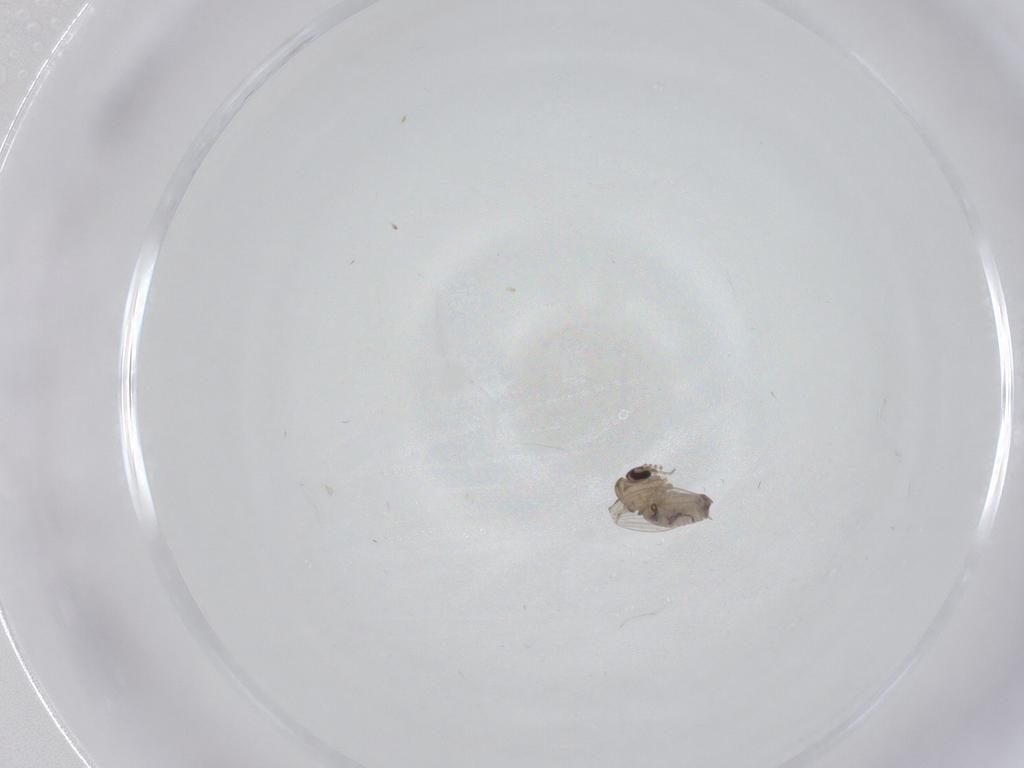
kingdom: Animalia
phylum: Arthropoda
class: Insecta
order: Diptera
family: Psychodidae
